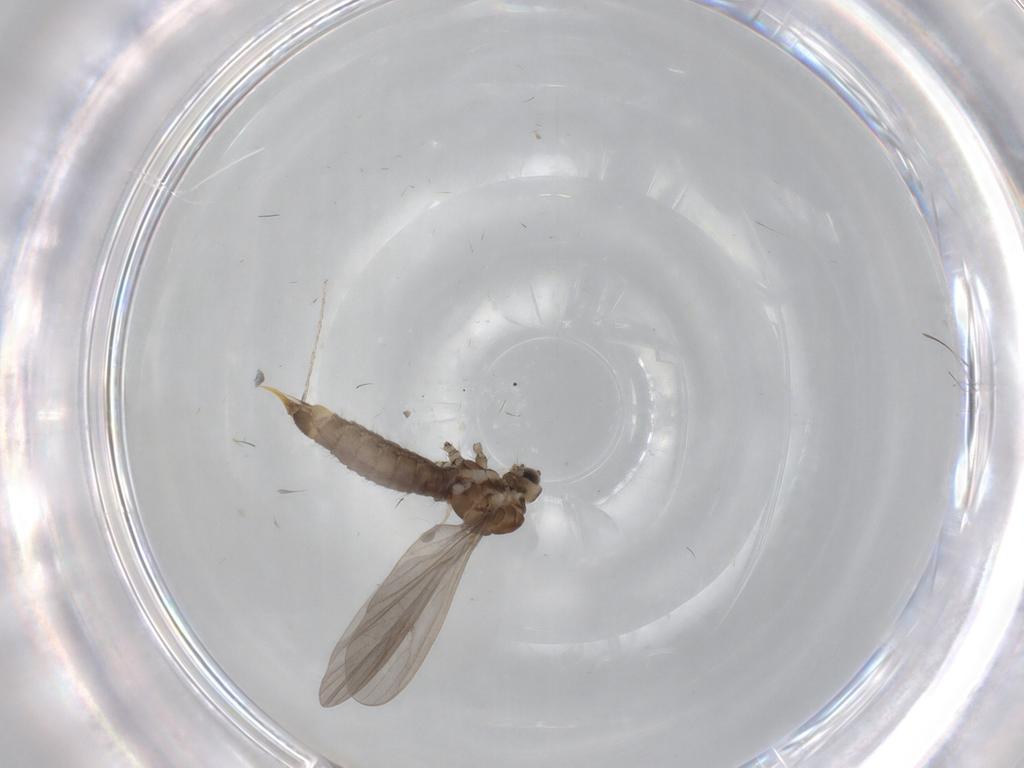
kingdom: Animalia
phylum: Arthropoda
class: Insecta
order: Diptera
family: Limoniidae
